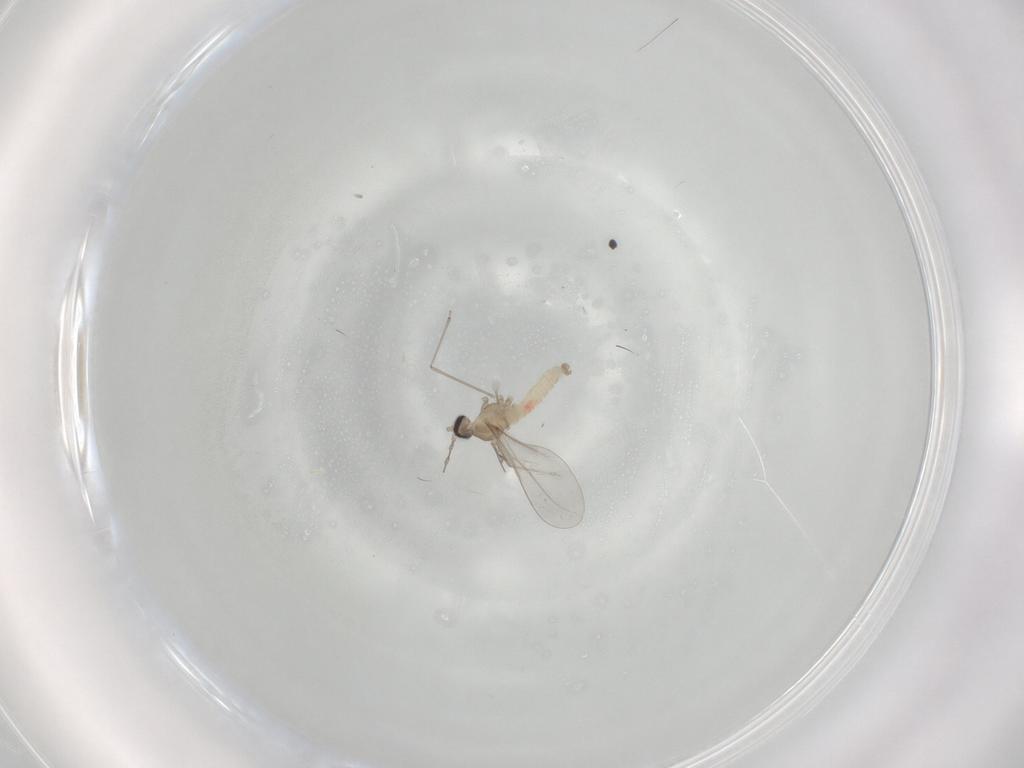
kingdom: Animalia
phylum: Arthropoda
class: Insecta
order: Diptera
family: Cecidomyiidae
